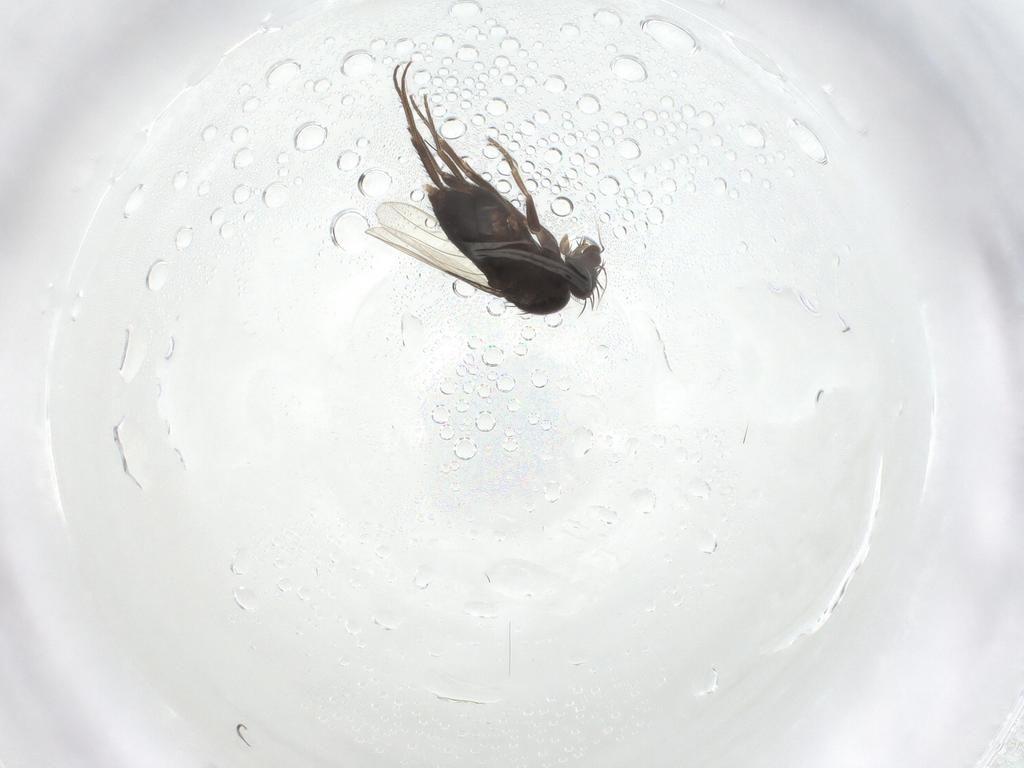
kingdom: Animalia
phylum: Arthropoda
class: Insecta
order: Diptera
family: Phoridae
